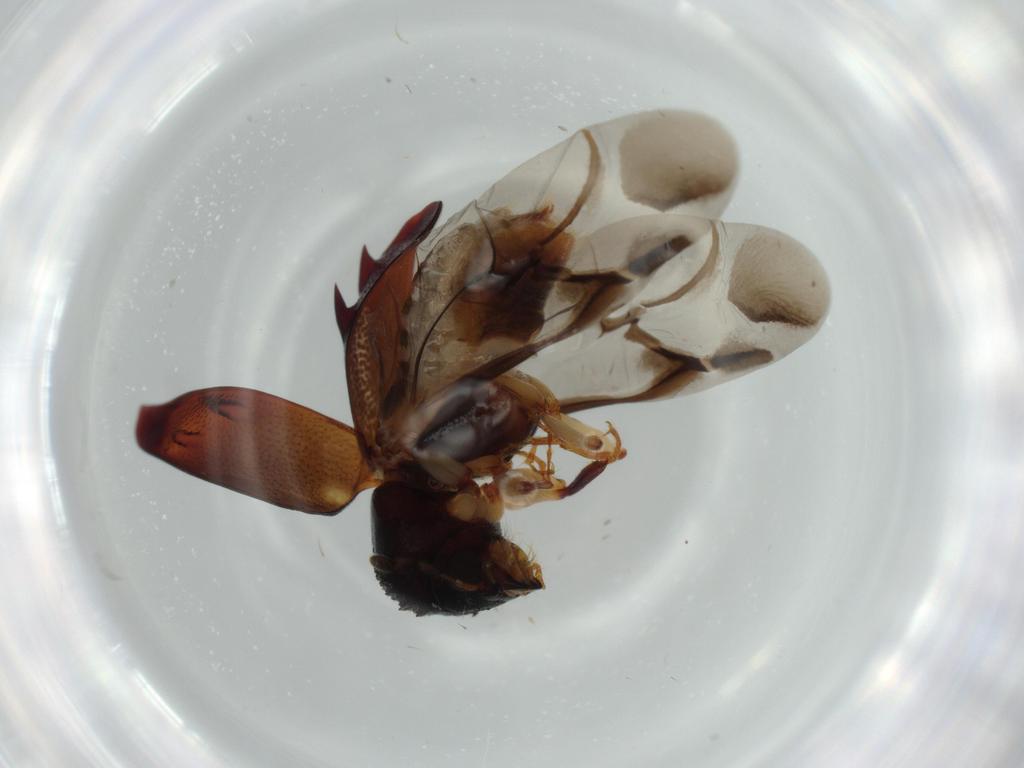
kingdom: Animalia
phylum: Arthropoda
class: Insecta
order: Coleoptera
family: Bostrichidae
